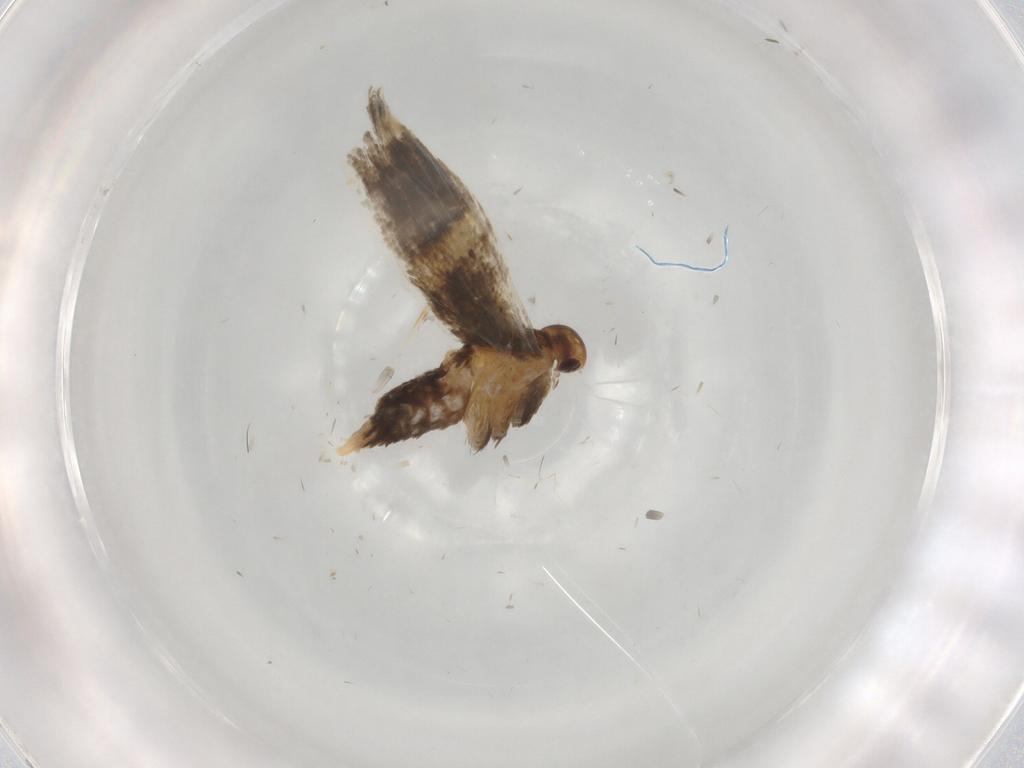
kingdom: Animalia
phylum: Arthropoda
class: Insecta
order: Lepidoptera
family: Oecophoridae
